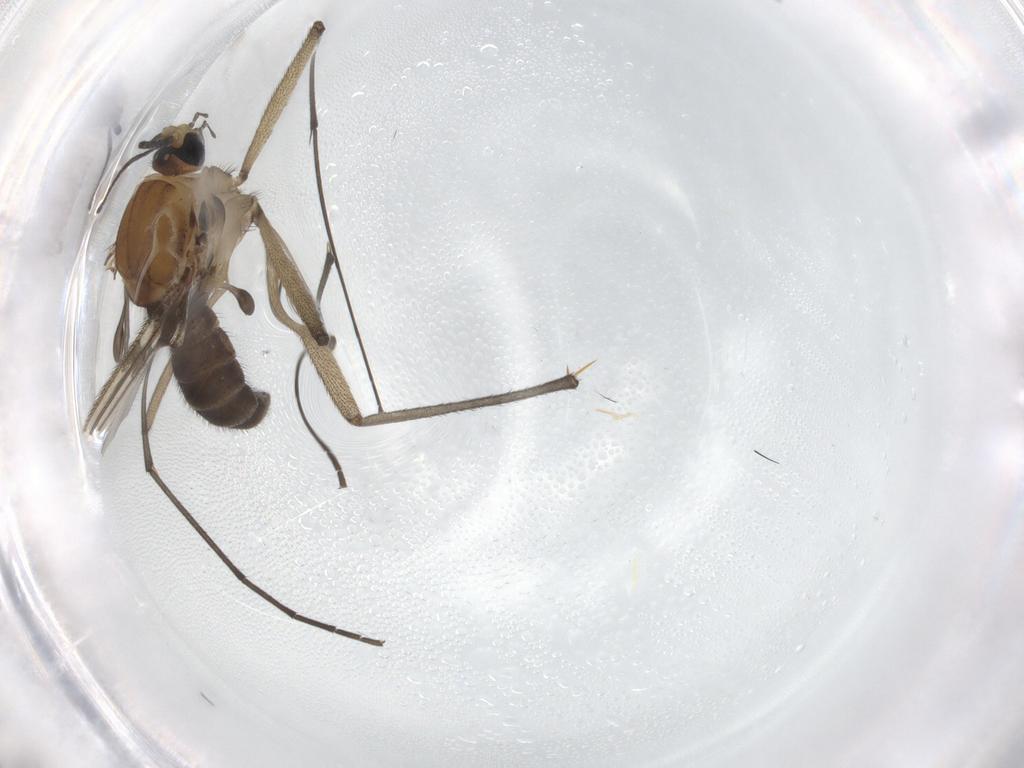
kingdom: Animalia
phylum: Arthropoda
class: Insecta
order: Diptera
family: Sciaridae
